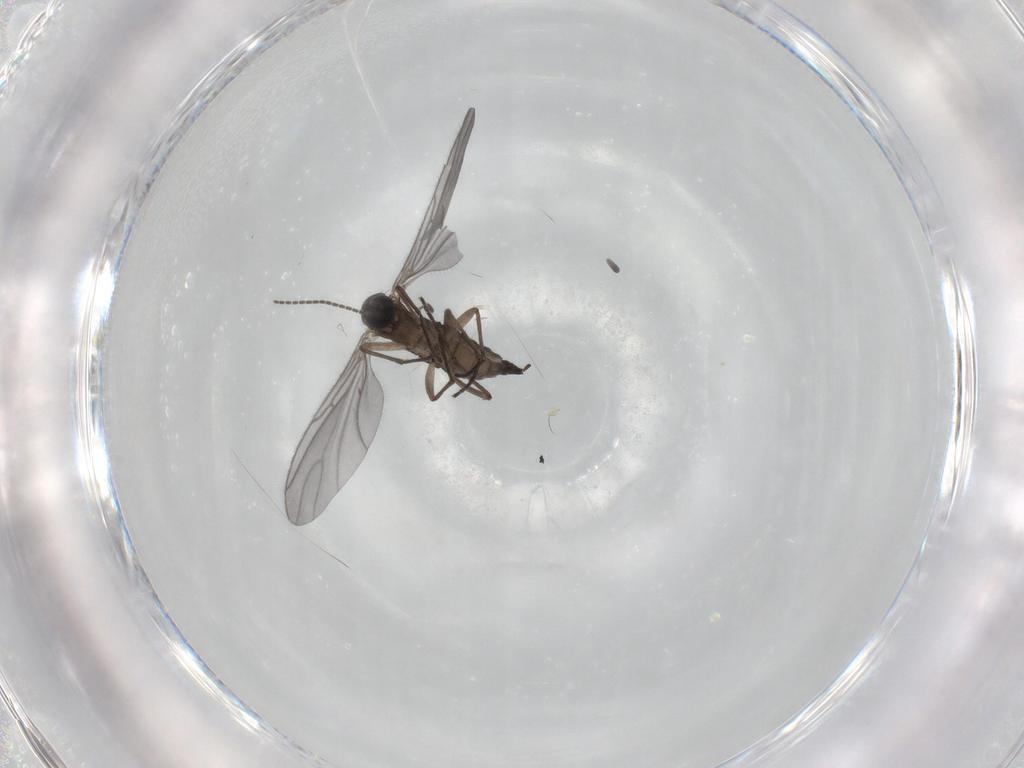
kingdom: Animalia
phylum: Arthropoda
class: Insecta
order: Diptera
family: Sciaridae
